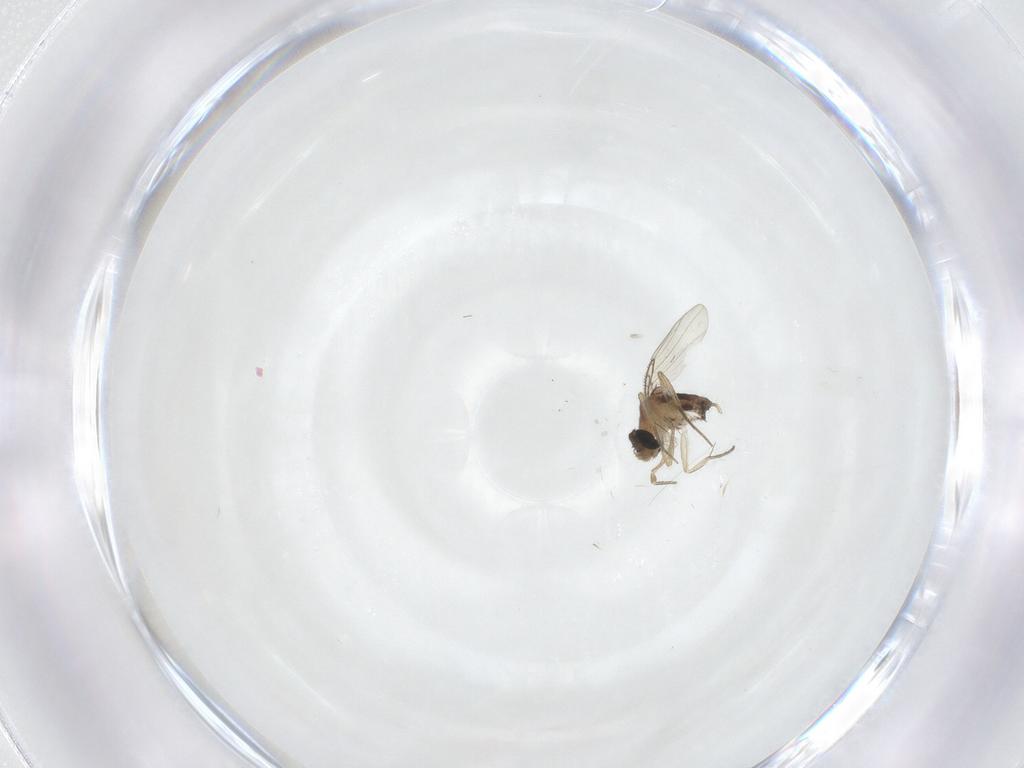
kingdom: Animalia
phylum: Arthropoda
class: Insecta
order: Diptera
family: Phoridae
